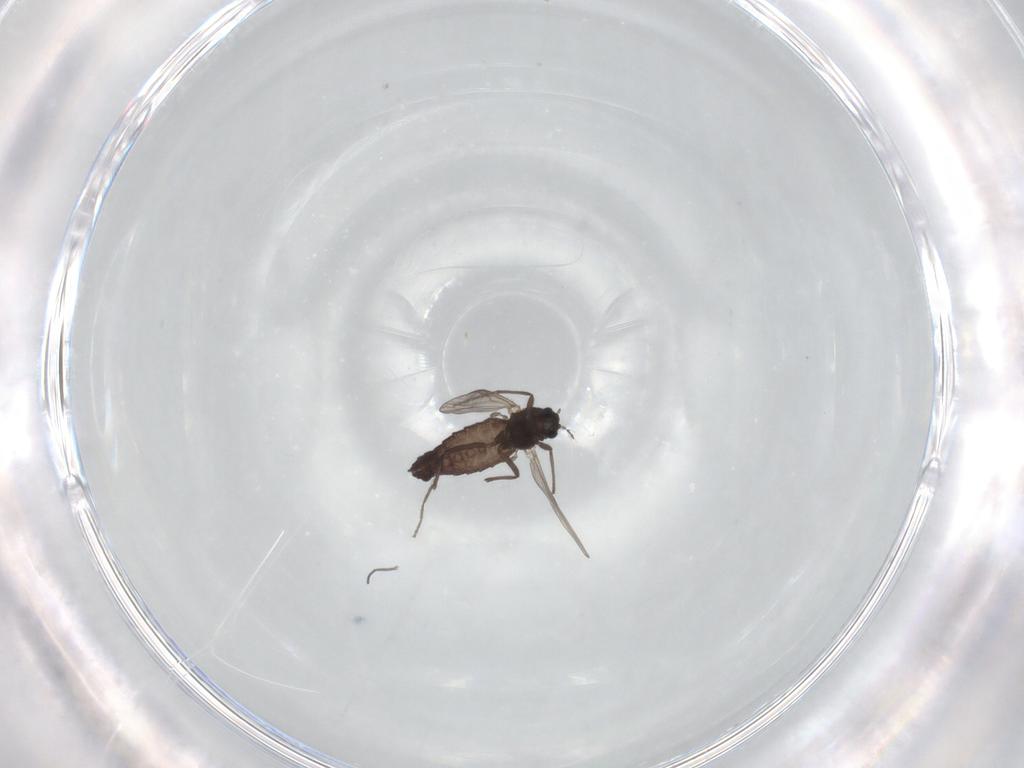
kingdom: Animalia
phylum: Arthropoda
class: Insecta
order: Diptera
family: Chironomidae
